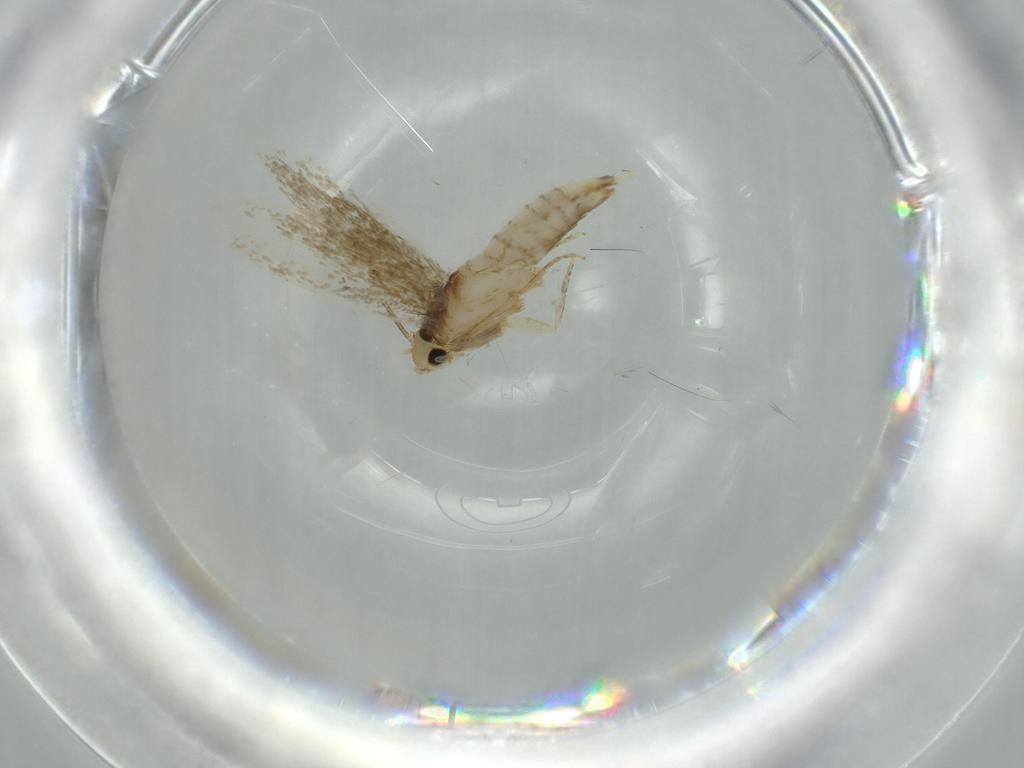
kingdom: Animalia
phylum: Arthropoda
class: Insecta
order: Lepidoptera
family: Tineidae
